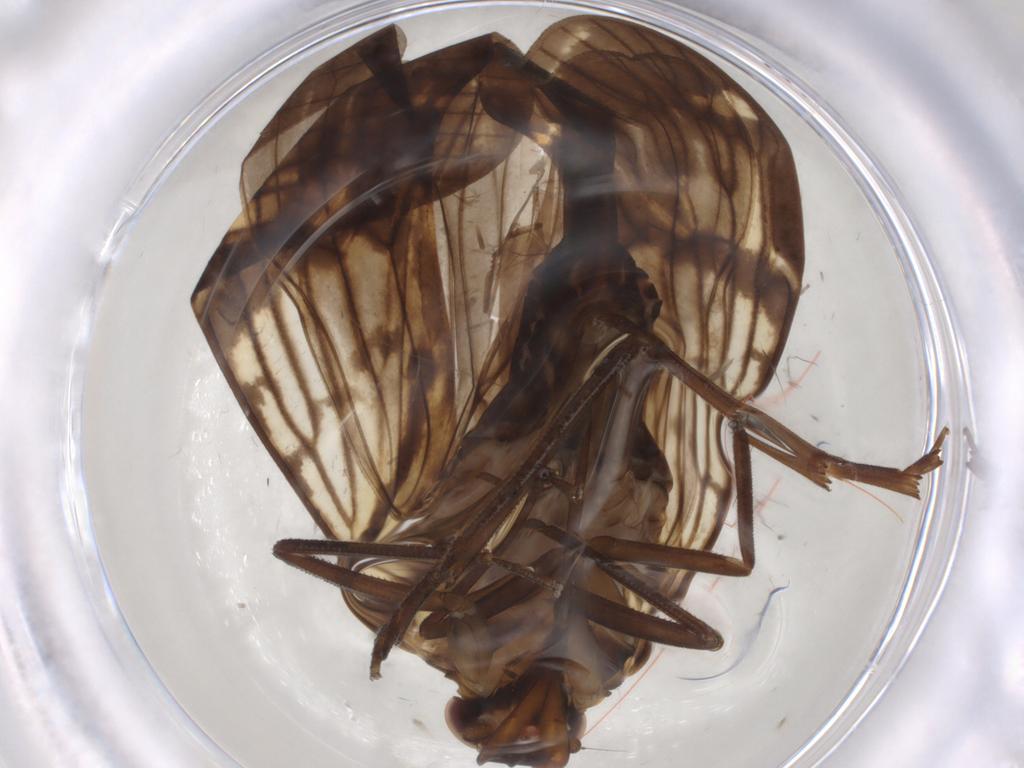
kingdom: Animalia
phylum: Arthropoda
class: Insecta
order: Hemiptera
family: Cixiidae
